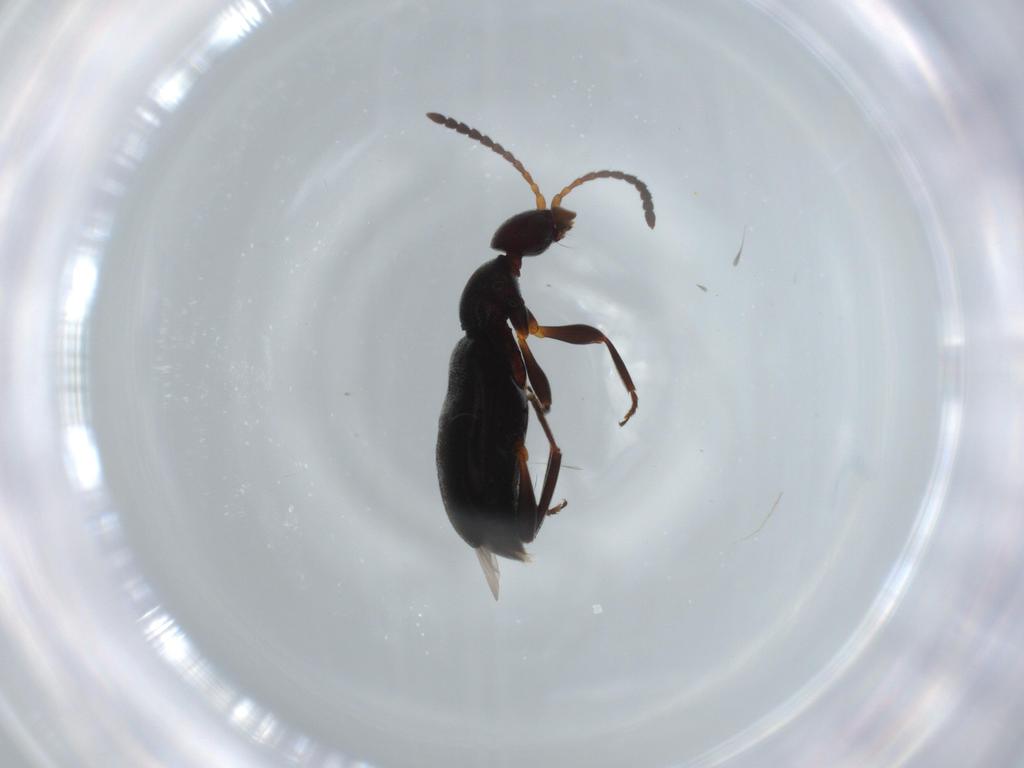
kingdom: Animalia
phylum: Arthropoda
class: Insecta
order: Coleoptera
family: Anthicidae
